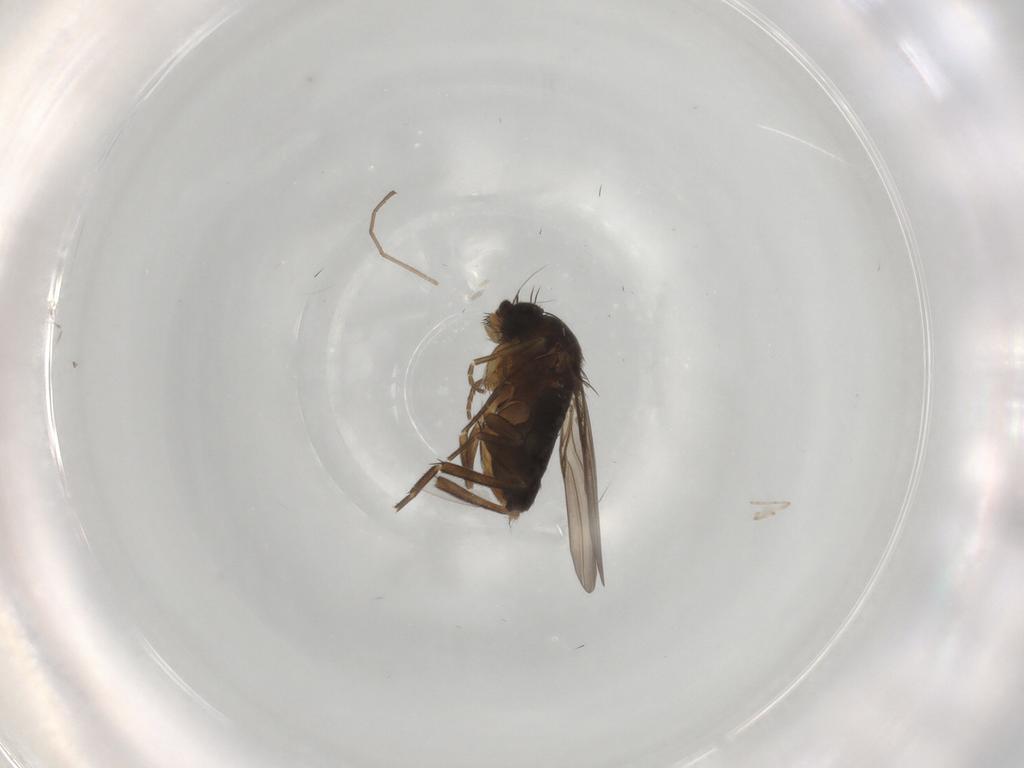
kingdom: Animalia
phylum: Arthropoda
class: Insecta
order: Diptera
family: Phoridae
